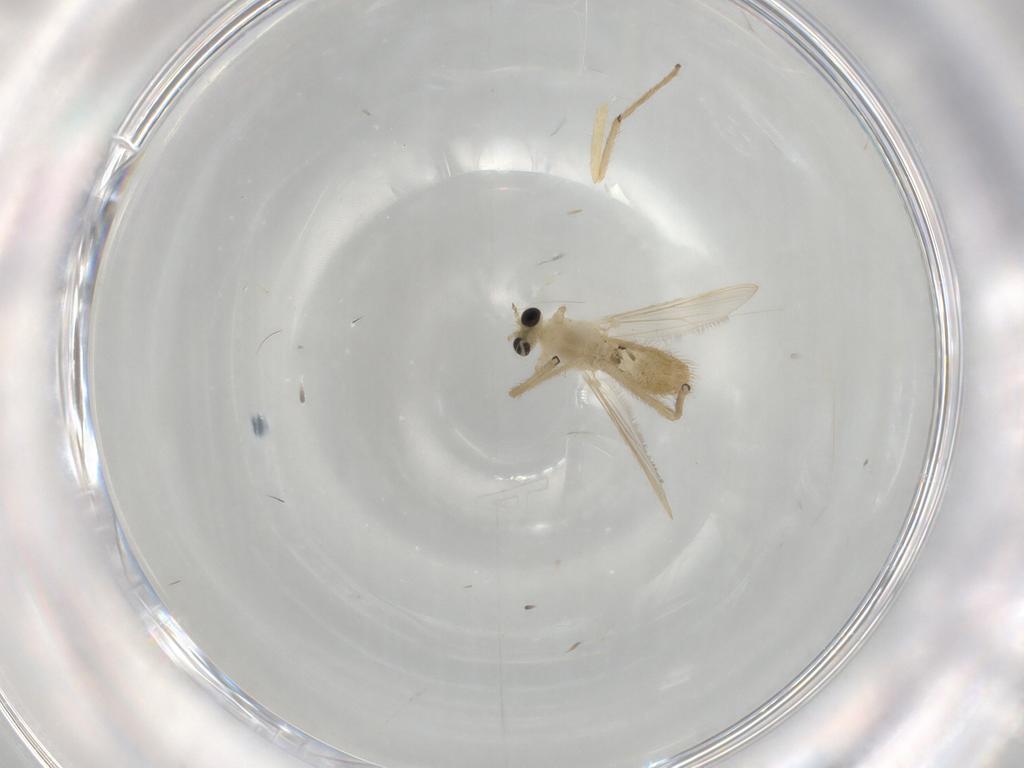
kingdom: Animalia
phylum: Arthropoda
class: Insecta
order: Diptera
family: Chironomidae
